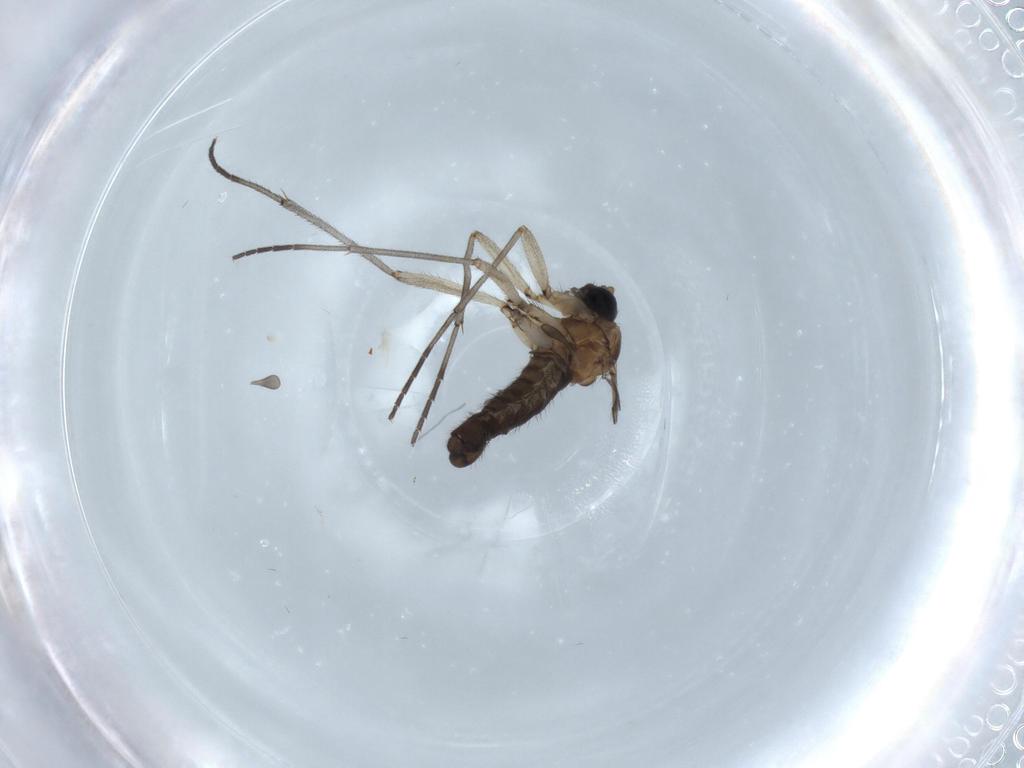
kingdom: Animalia
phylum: Arthropoda
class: Insecta
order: Diptera
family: Sciaridae
